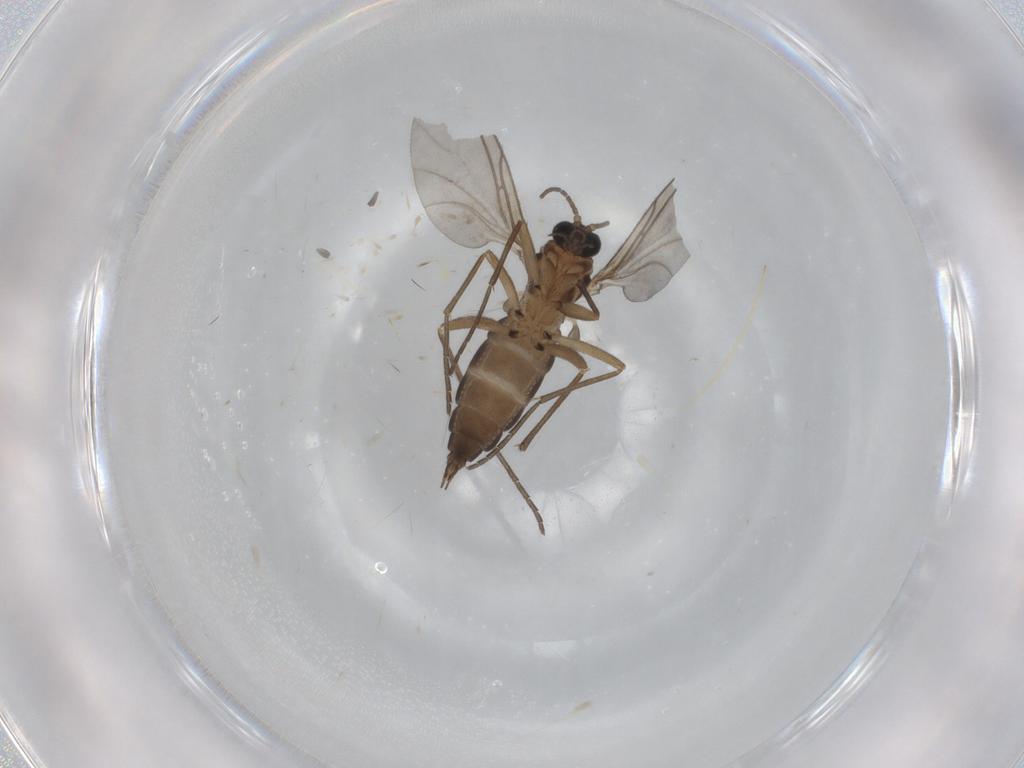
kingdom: Animalia
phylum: Arthropoda
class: Insecta
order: Diptera
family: Sciaridae
